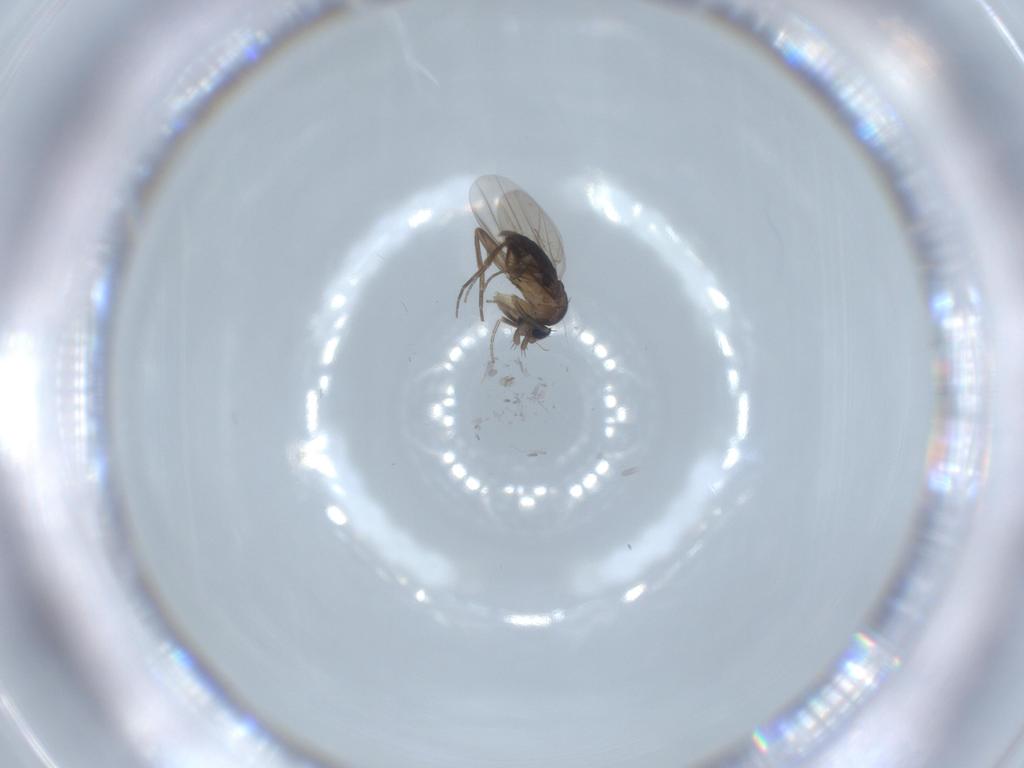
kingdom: Animalia
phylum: Arthropoda
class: Insecta
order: Diptera
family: Phoridae
